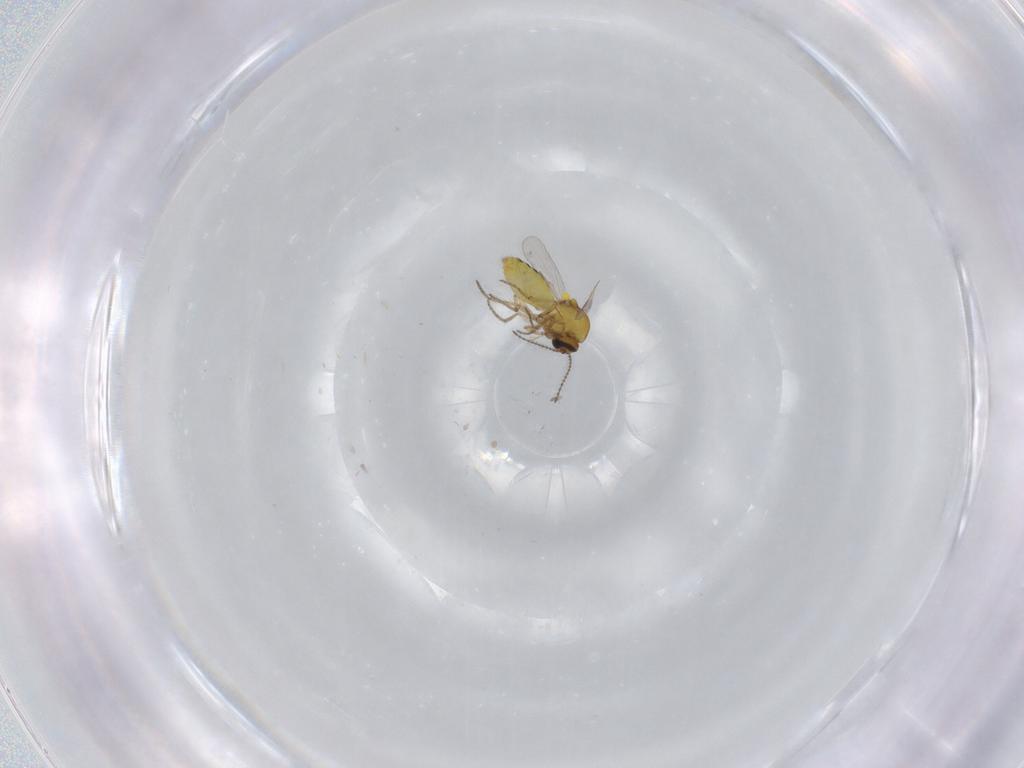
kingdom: Animalia
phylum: Arthropoda
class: Insecta
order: Diptera
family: Ceratopogonidae
